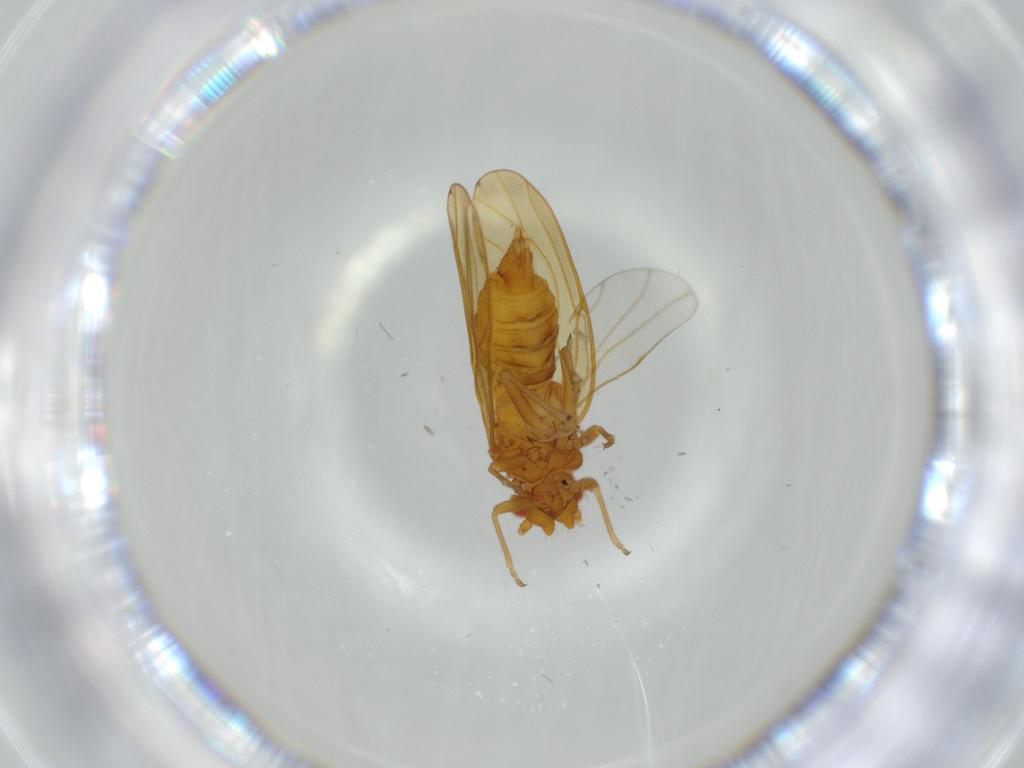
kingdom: Animalia
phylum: Arthropoda
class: Insecta
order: Hemiptera
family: Psylloidea_incertae_sedis
